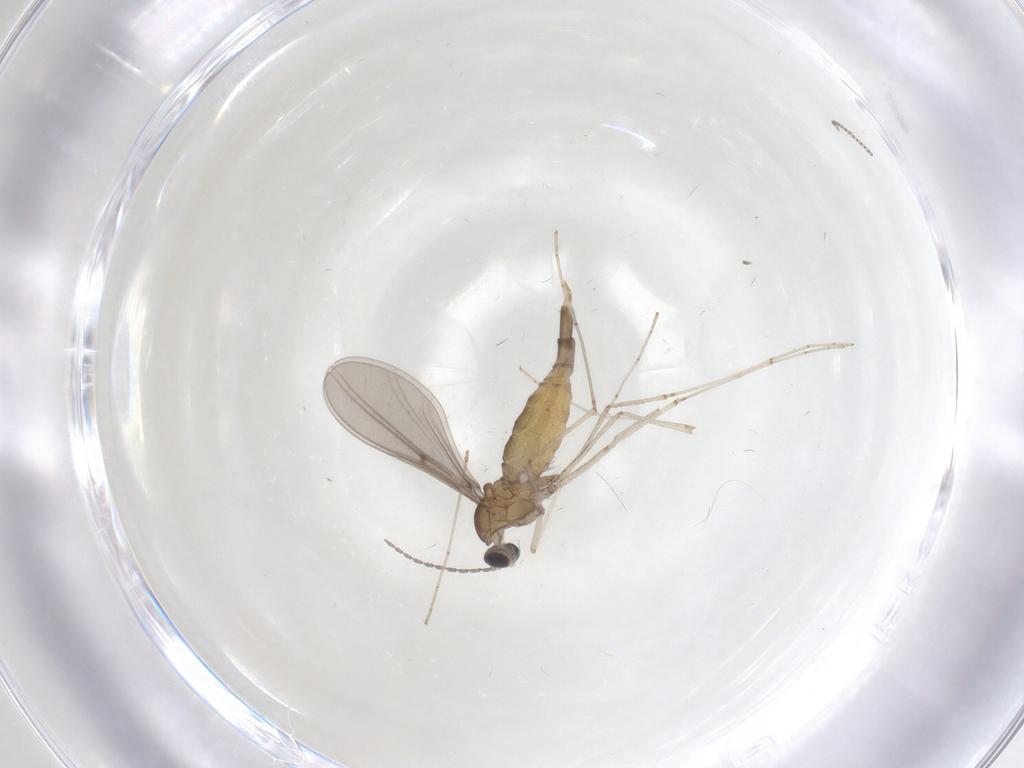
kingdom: Animalia
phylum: Arthropoda
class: Insecta
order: Diptera
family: Cecidomyiidae
